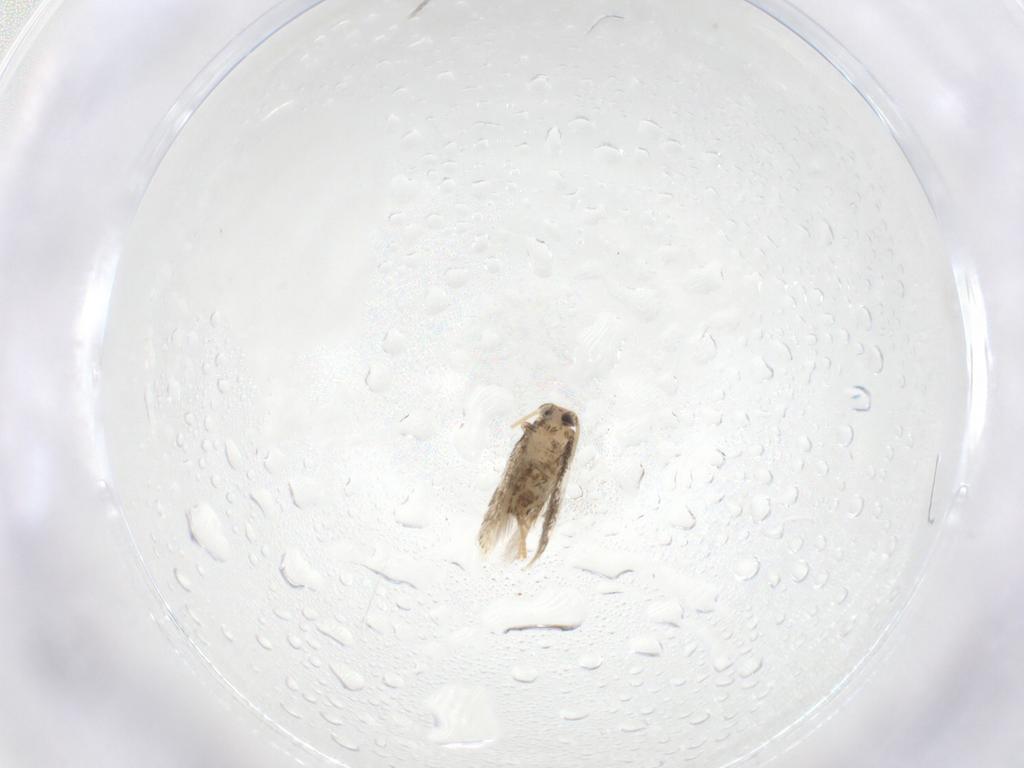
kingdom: Animalia
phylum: Arthropoda
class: Insecta
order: Lepidoptera
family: Nepticulidae
